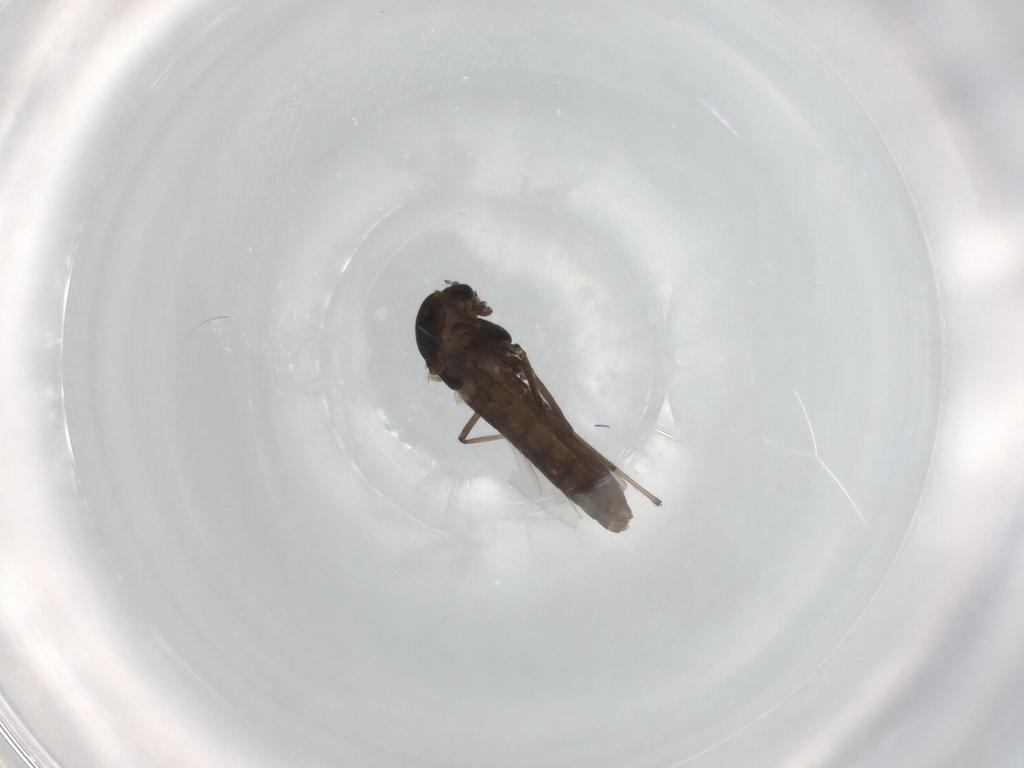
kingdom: Animalia
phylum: Arthropoda
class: Insecta
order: Diptera
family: Chironomidae
